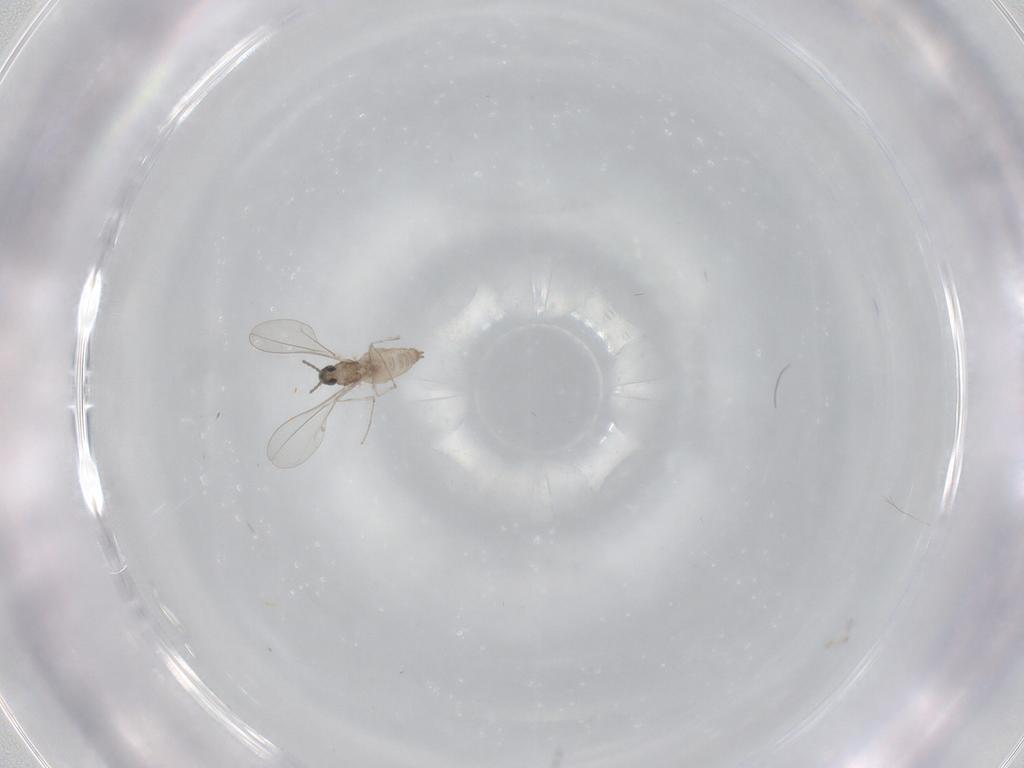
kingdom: Animalia
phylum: Arthropoda
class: Insecta
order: Diptera
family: Cecidomyiidae
